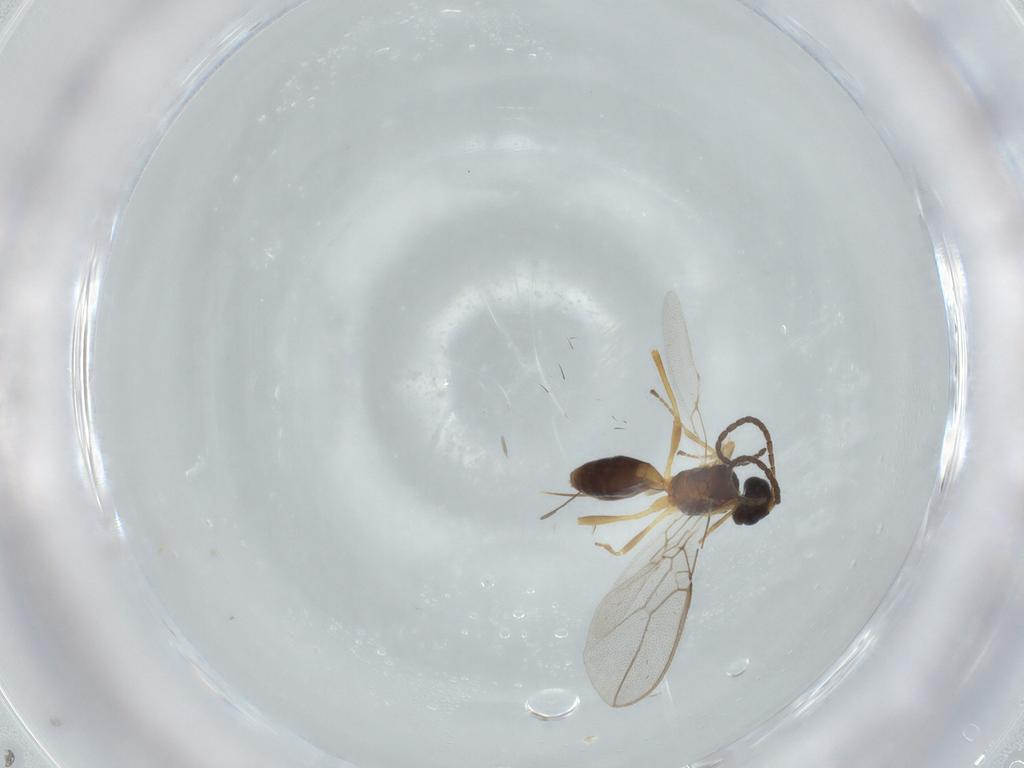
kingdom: Animalia
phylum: Arthropoda
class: Insecta
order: Hymenoptera
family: Braconidae
